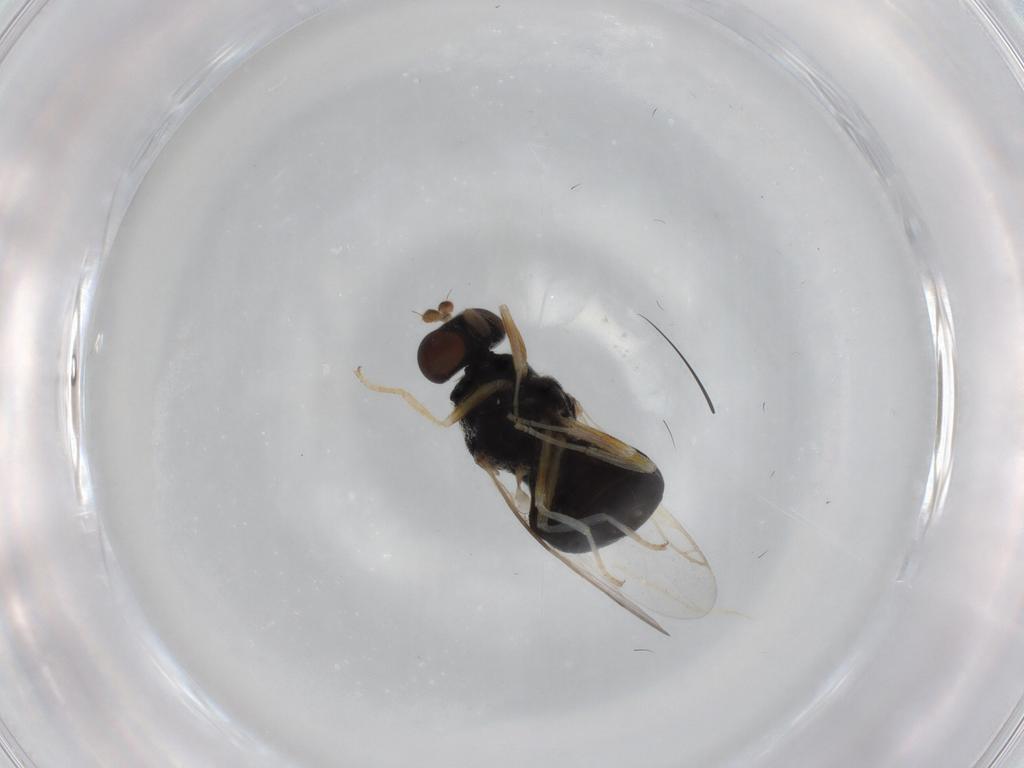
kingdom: Animalia
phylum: Arthropoda
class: Insecta
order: Diptera
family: Stratiomyidae
